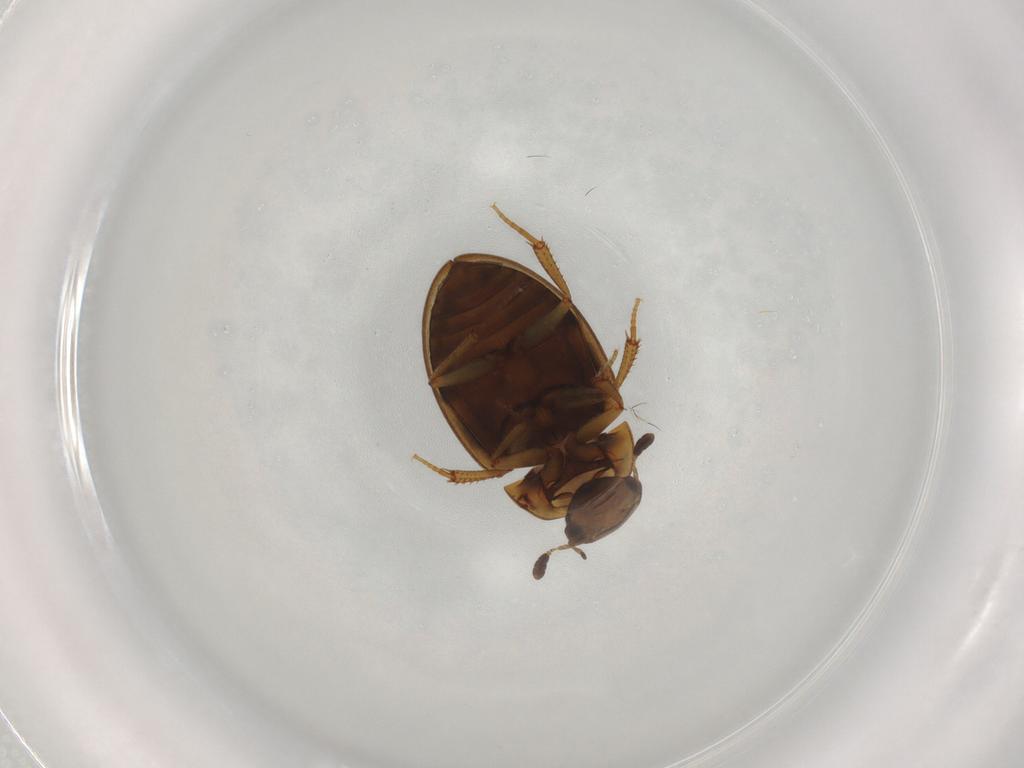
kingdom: Animalia
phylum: Arthropoda
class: Insecta
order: Coleoptera
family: Hydrophilidae
